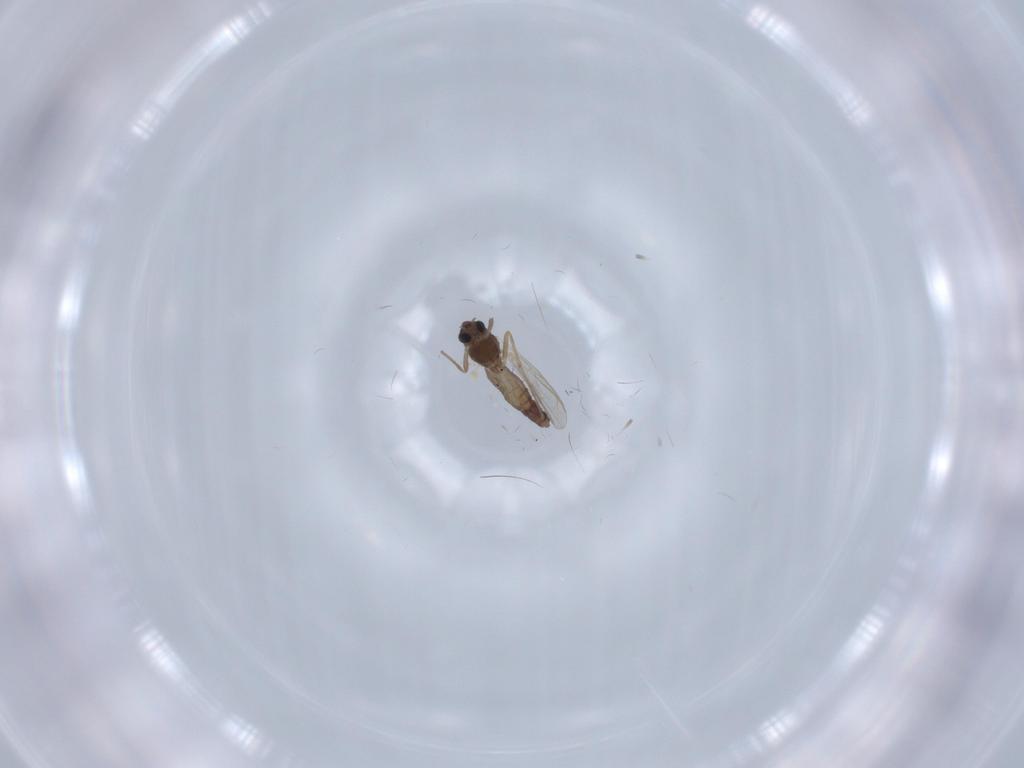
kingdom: Animalia
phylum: Arthropoda
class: Insecta
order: Diptera
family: Chironomidae
